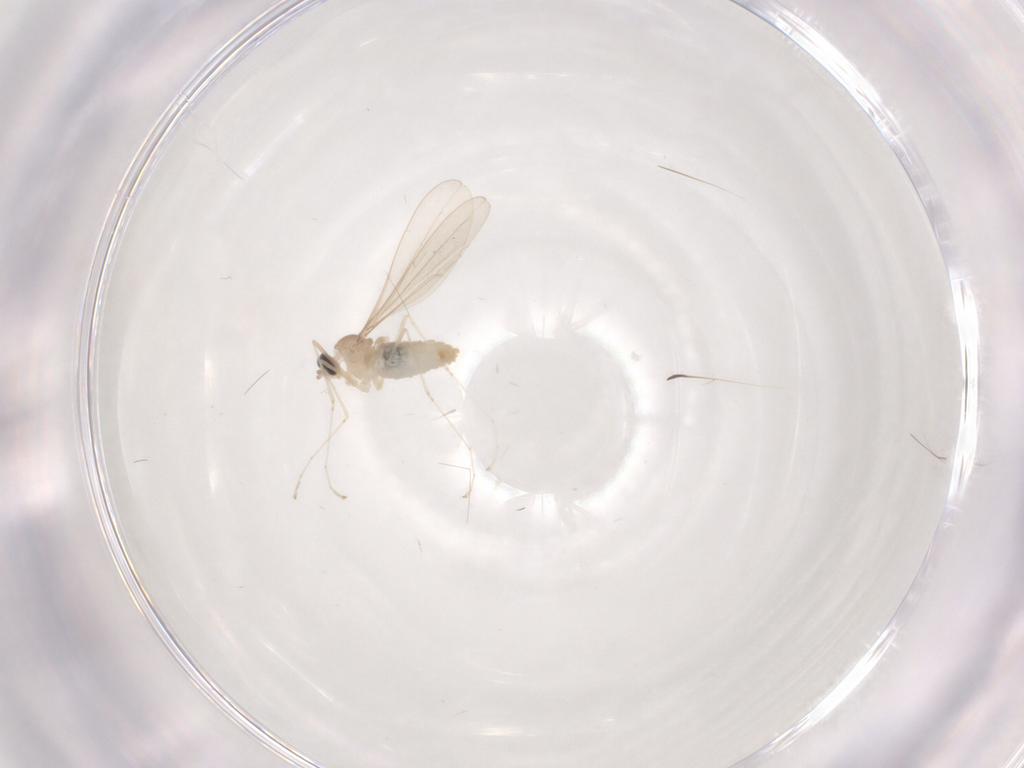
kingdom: Animalia
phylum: Arthropoda
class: Insecta
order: Diptera
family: Cecidomyiidae
